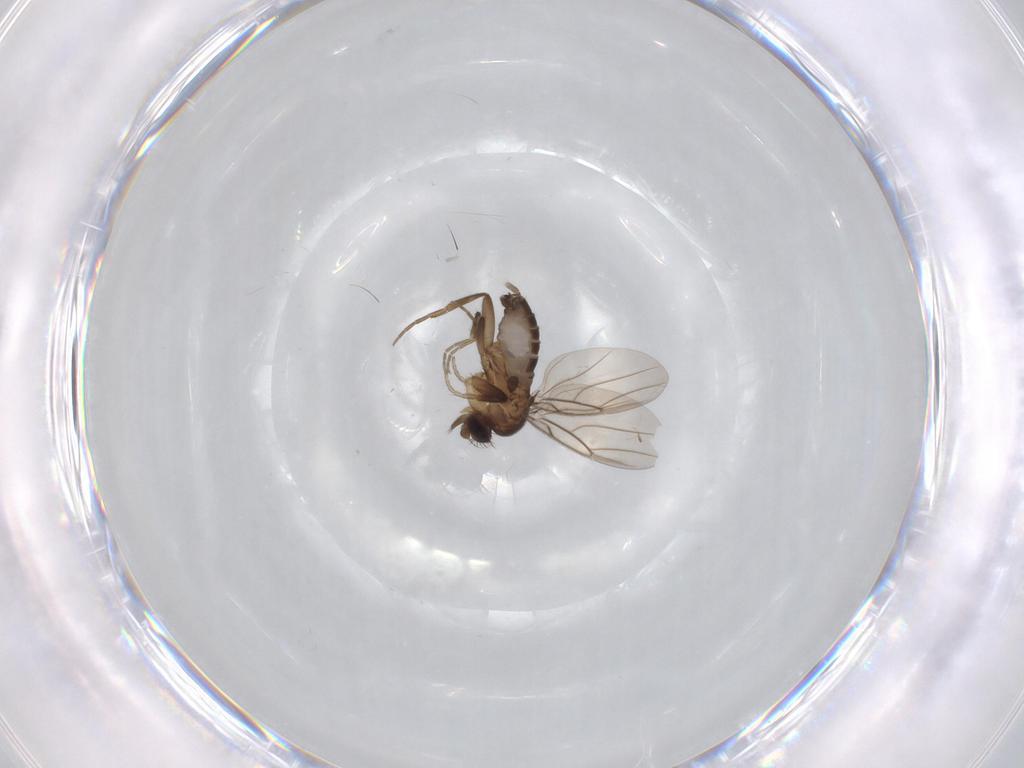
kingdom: Animalia
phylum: Arthropoda
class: Insecta
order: Diptera
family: Phoridae
